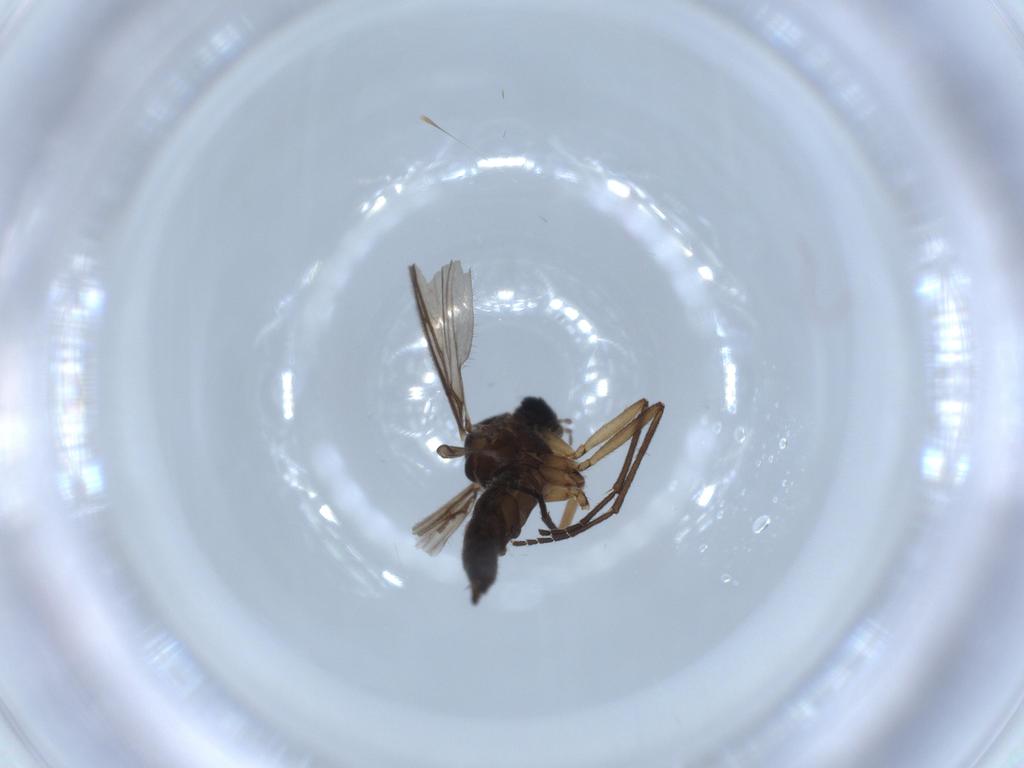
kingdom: Animalia
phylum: Arthropoda
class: Insecta
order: Diptera
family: Sciaridae
